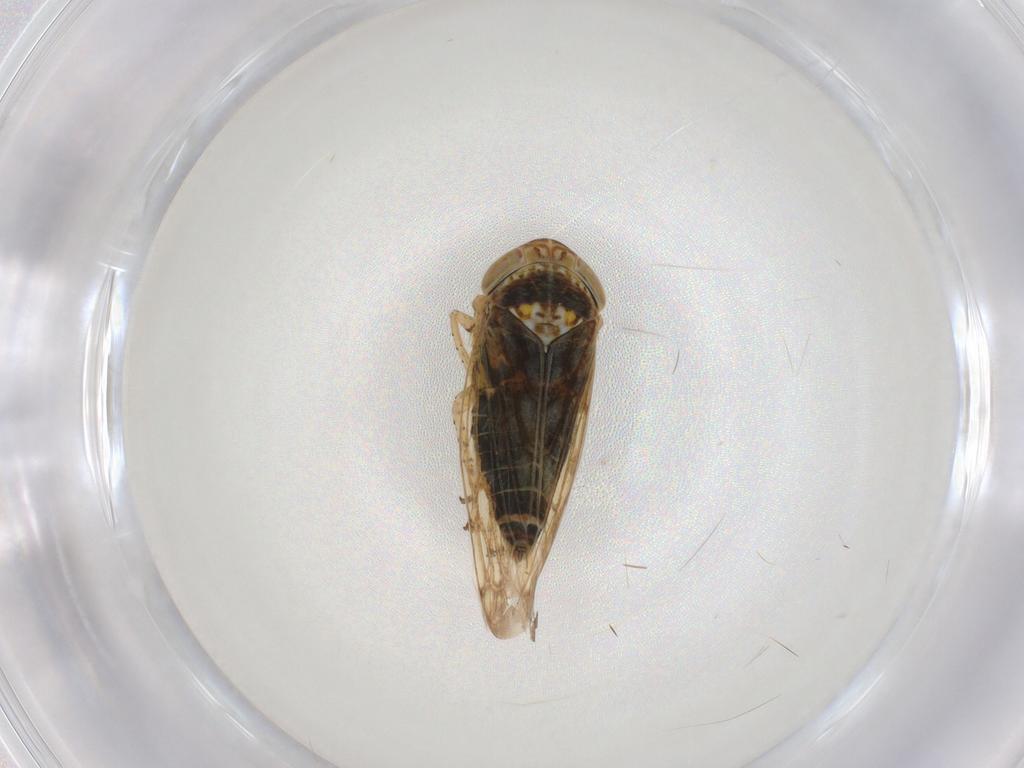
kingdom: Animalia
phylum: Arthropoda
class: Insecta
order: Hemiptera
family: Cicadellidae
